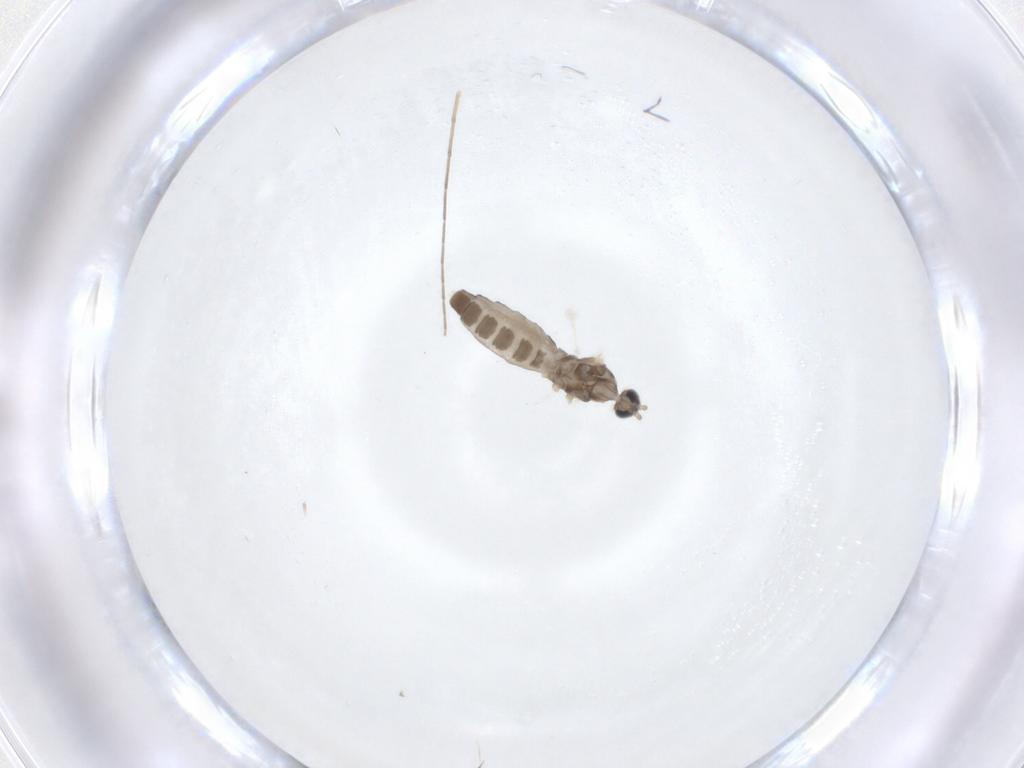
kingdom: Animalia
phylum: Arthropoda
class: Insecta
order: Diptera
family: Cecidomyiidae
